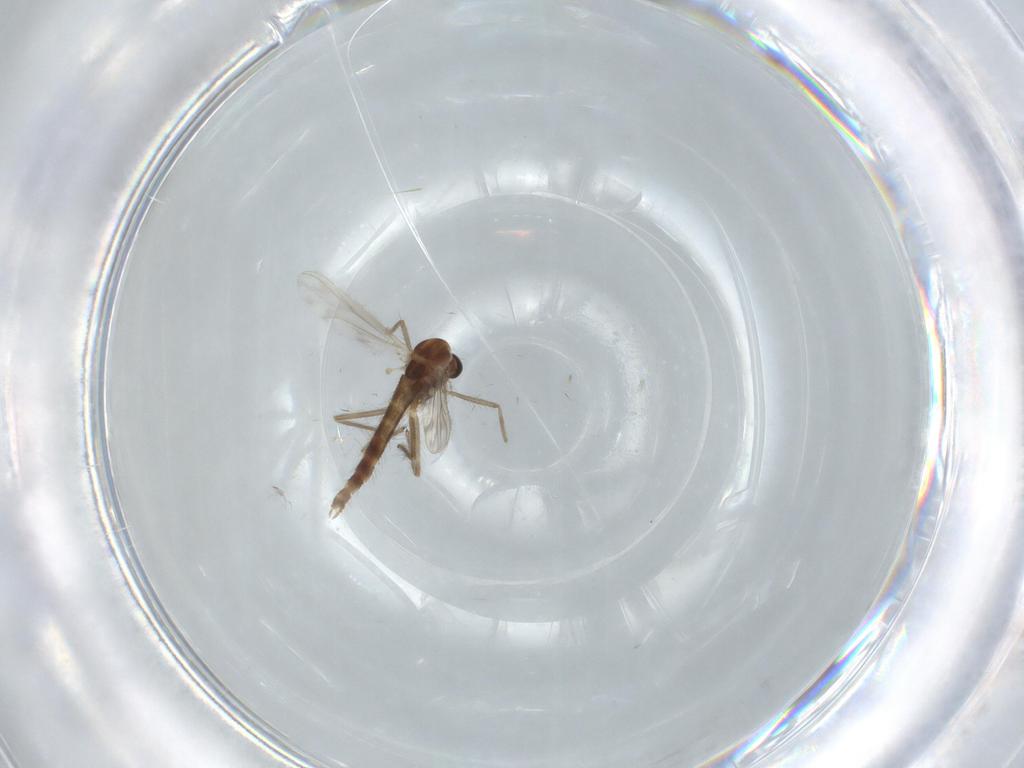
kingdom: Animalia
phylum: Arthropoda
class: Insecta
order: Diptera
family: Chironomidae
